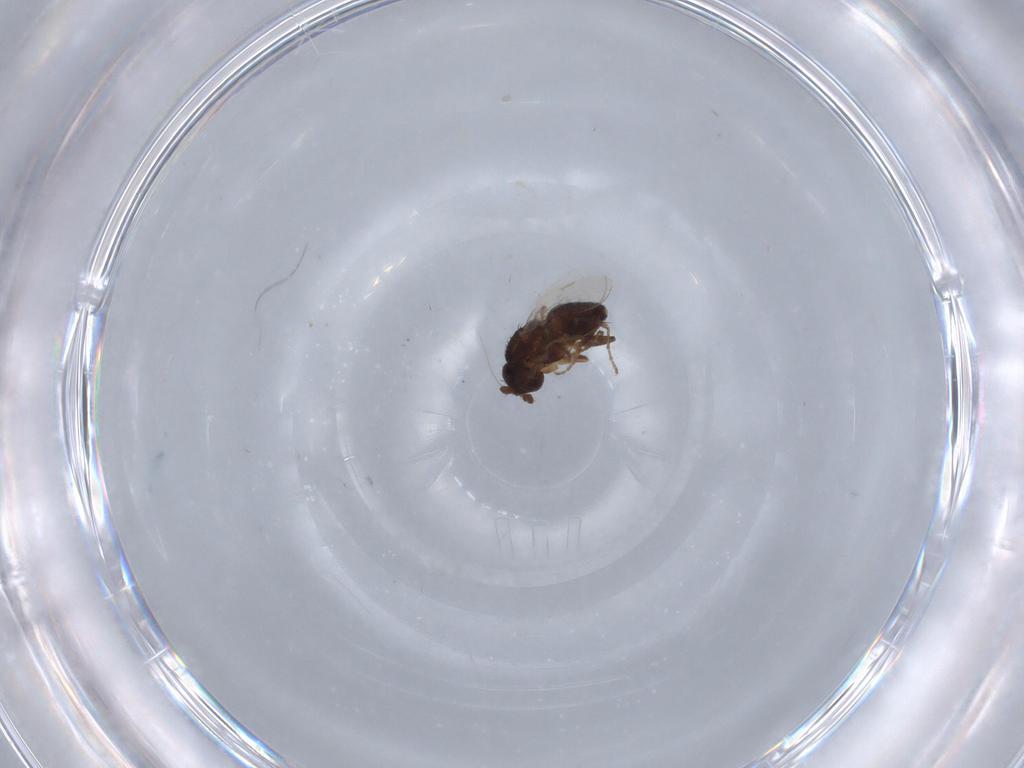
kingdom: Animalia
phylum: Arthropoda
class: Insecta
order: Diptera
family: Sphaeroceridae
